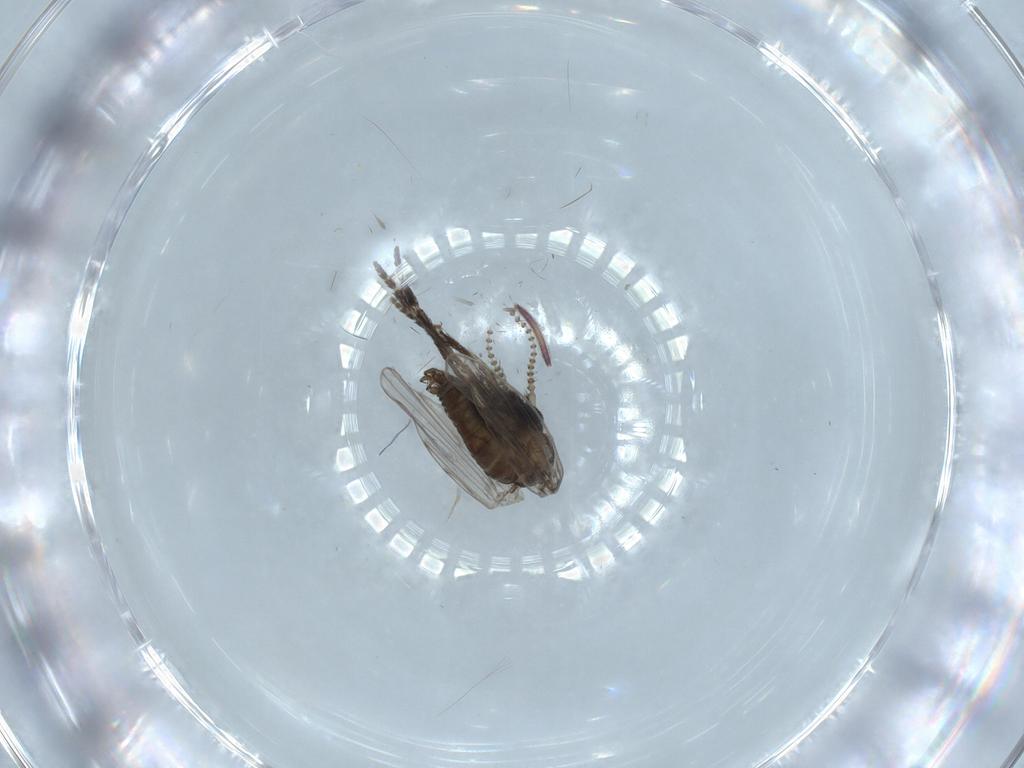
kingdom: Animalia
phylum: Arthropoda
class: Insecta
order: Diptera
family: Psychodidae
